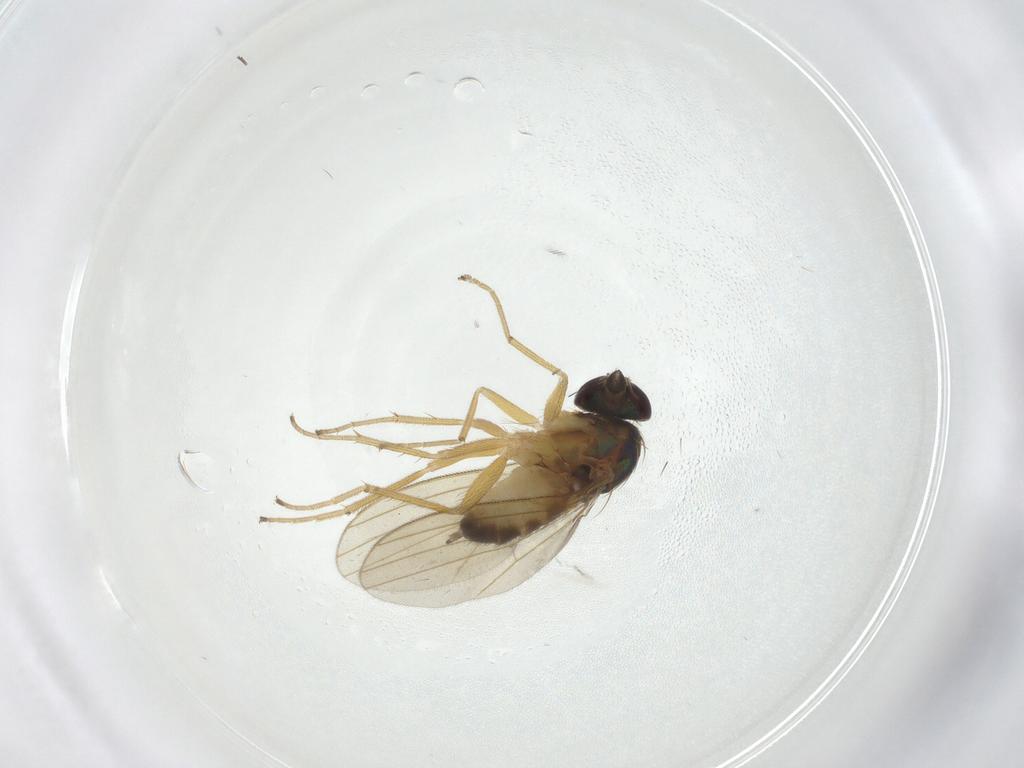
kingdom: Animalia
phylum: Arthropoda
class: Insecta
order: Diptera
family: Dolichopodidae
